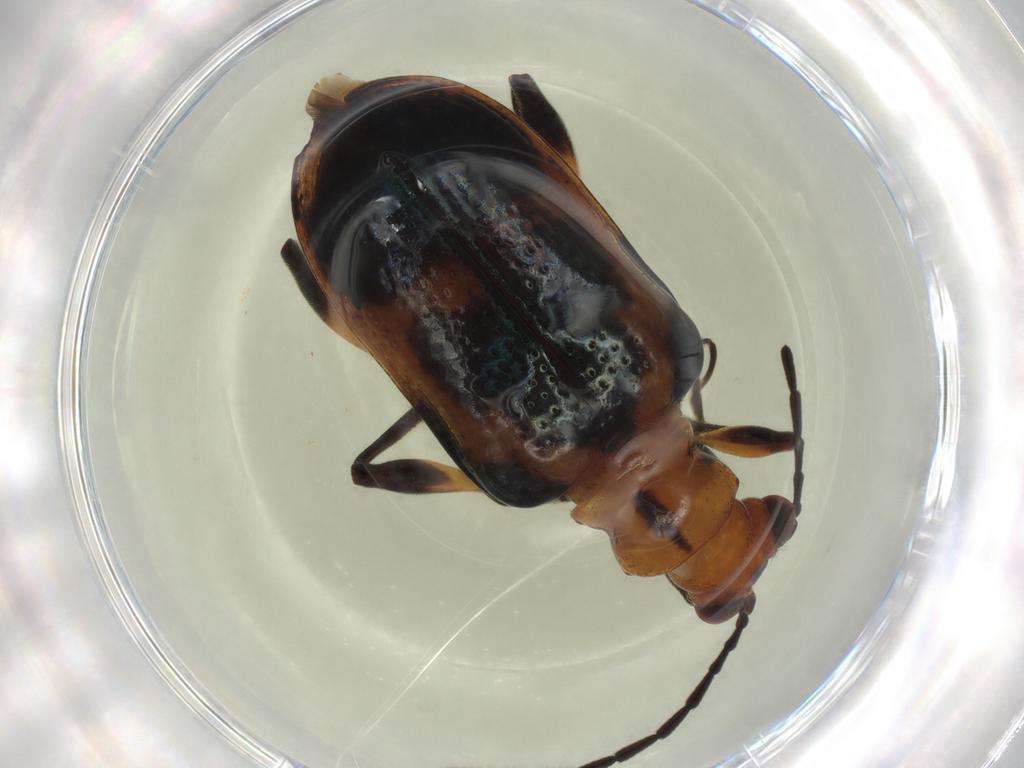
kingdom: Animalia
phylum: Arthropoda
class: Insecta
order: Coleoptera
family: Chrysomelidae
